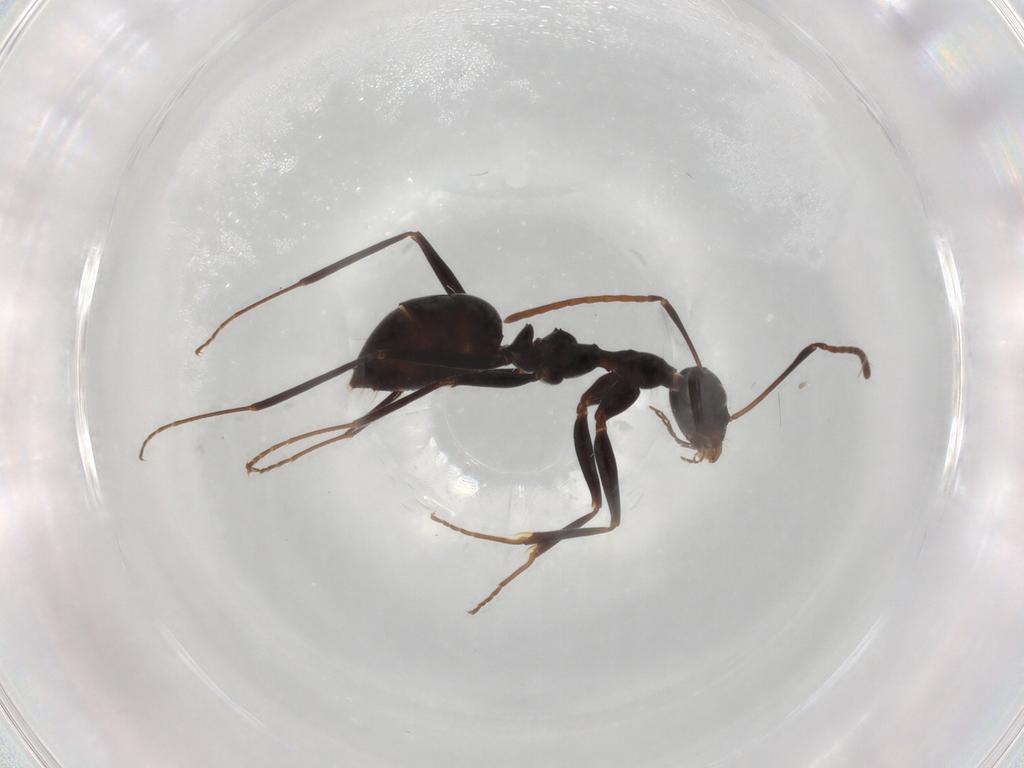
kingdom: Animalia
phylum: Arthropoda
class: Insecta
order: Hymenoptera
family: Formicidae
